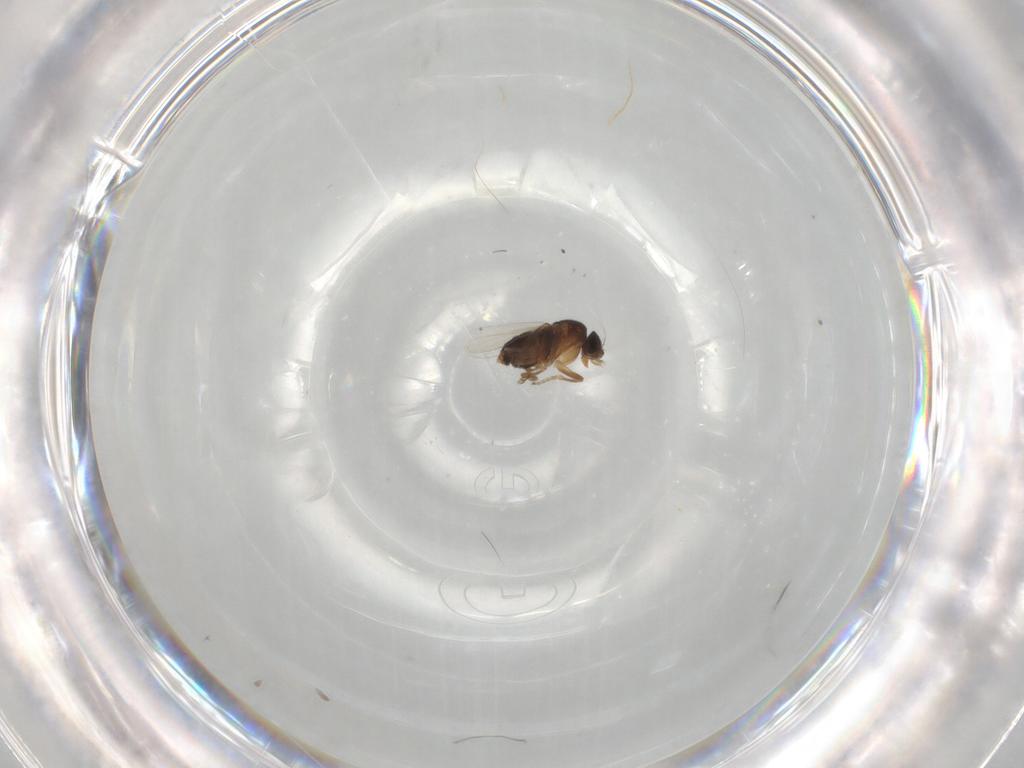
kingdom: Animalia
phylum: Arthropoda
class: Insecta
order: Diptera
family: Phoridae
